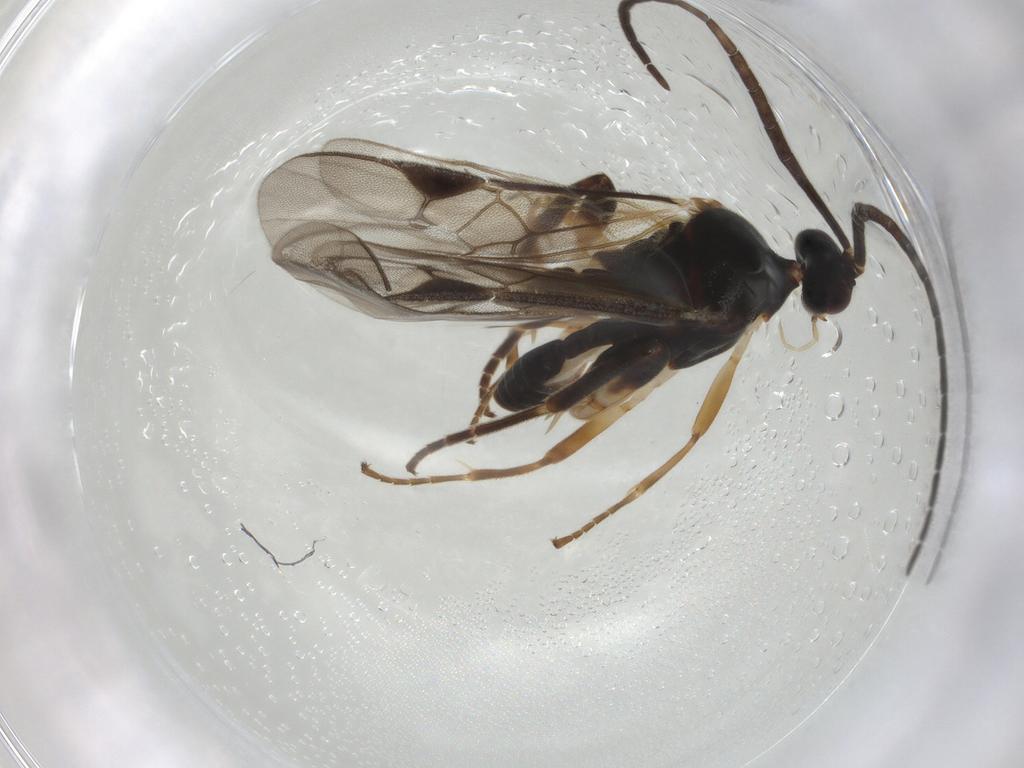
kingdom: Animalia
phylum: Arthropoda
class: Insecta
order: Hymenoptera
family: Braconidae
